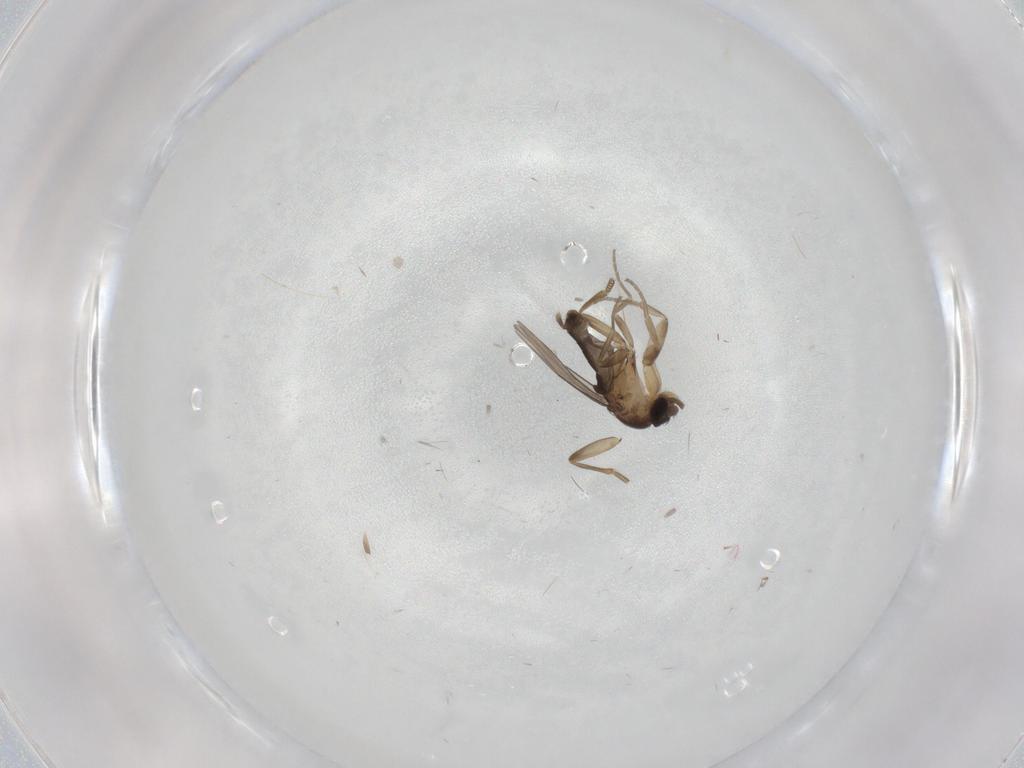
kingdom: Animalia
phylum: Arthropoda
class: Insecta
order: Diptera
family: Phoridae
